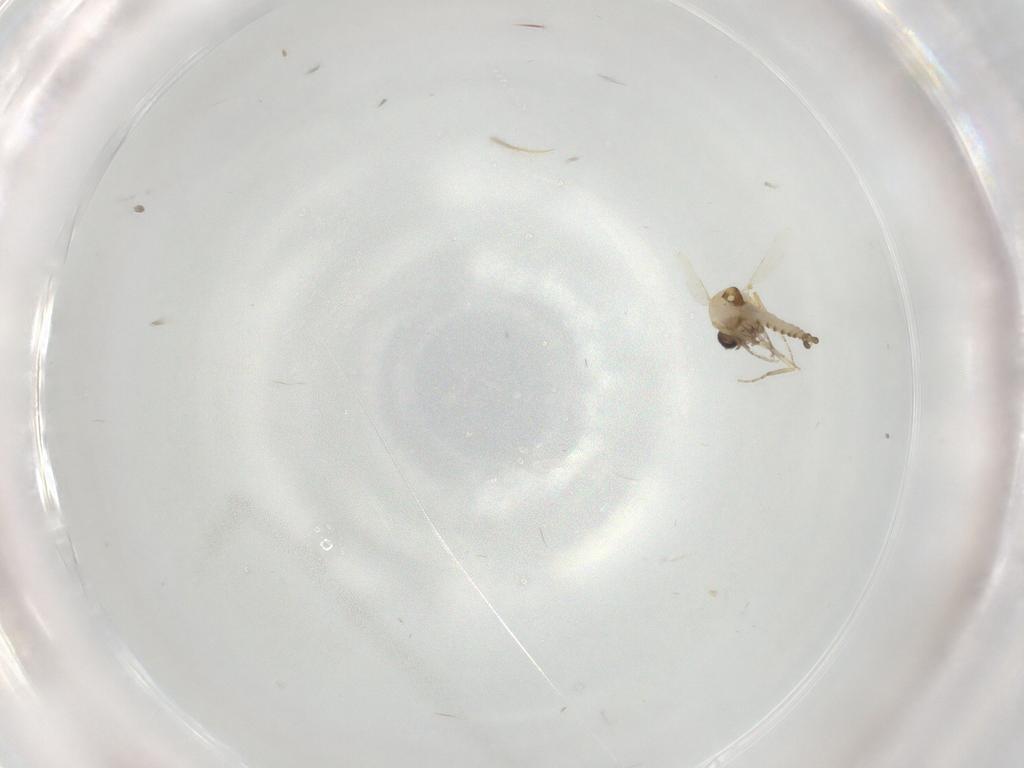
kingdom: Animalia
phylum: Arthropoda
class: Insecta
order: Diptera
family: Ceratopogonidae
